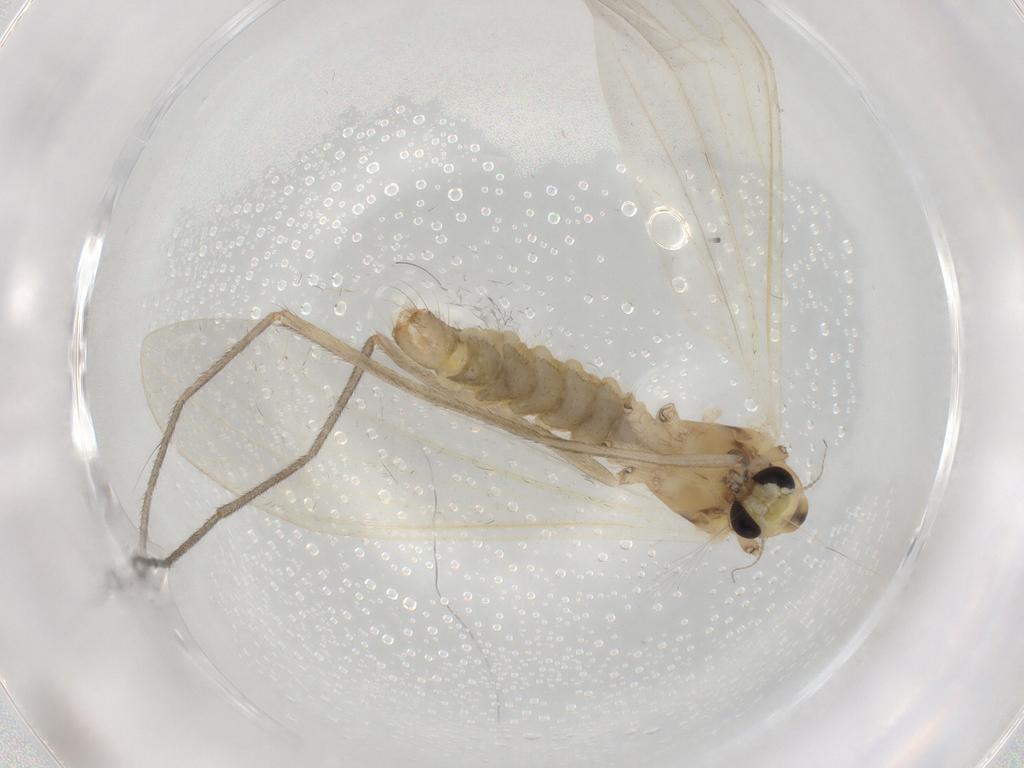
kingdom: Animalia
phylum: Arthropoda
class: Insecta
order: Diptera
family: Limoniidae
